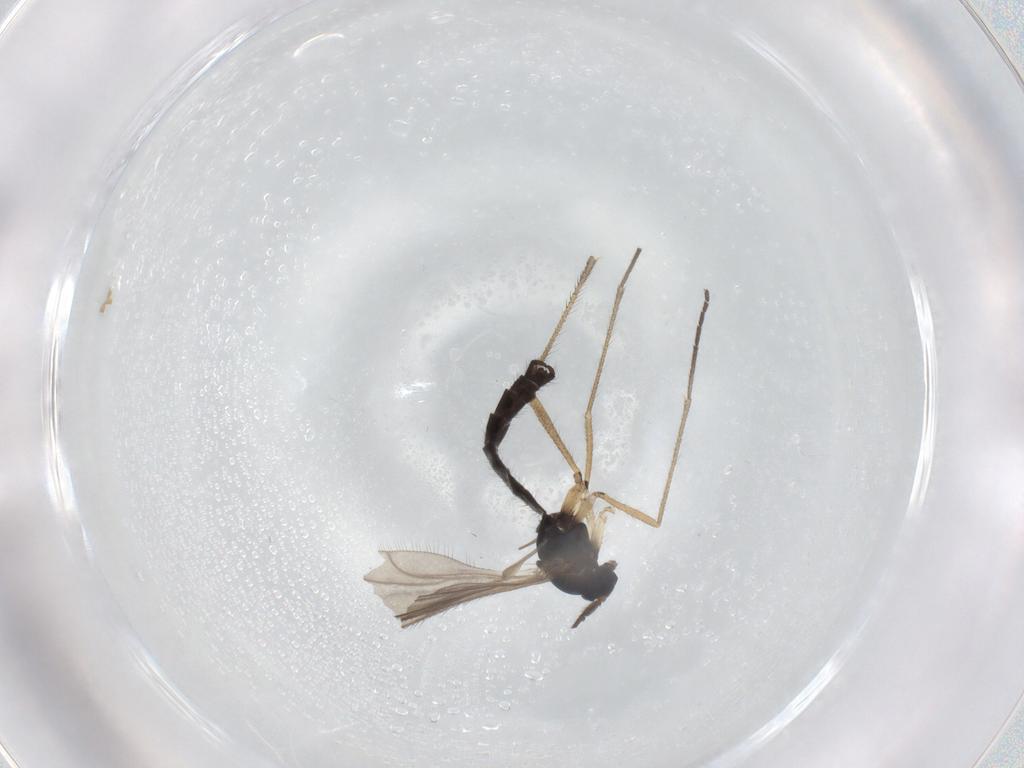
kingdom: Animalia
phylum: Arthropoda
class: Insecta
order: Diptera
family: Sciaridae
